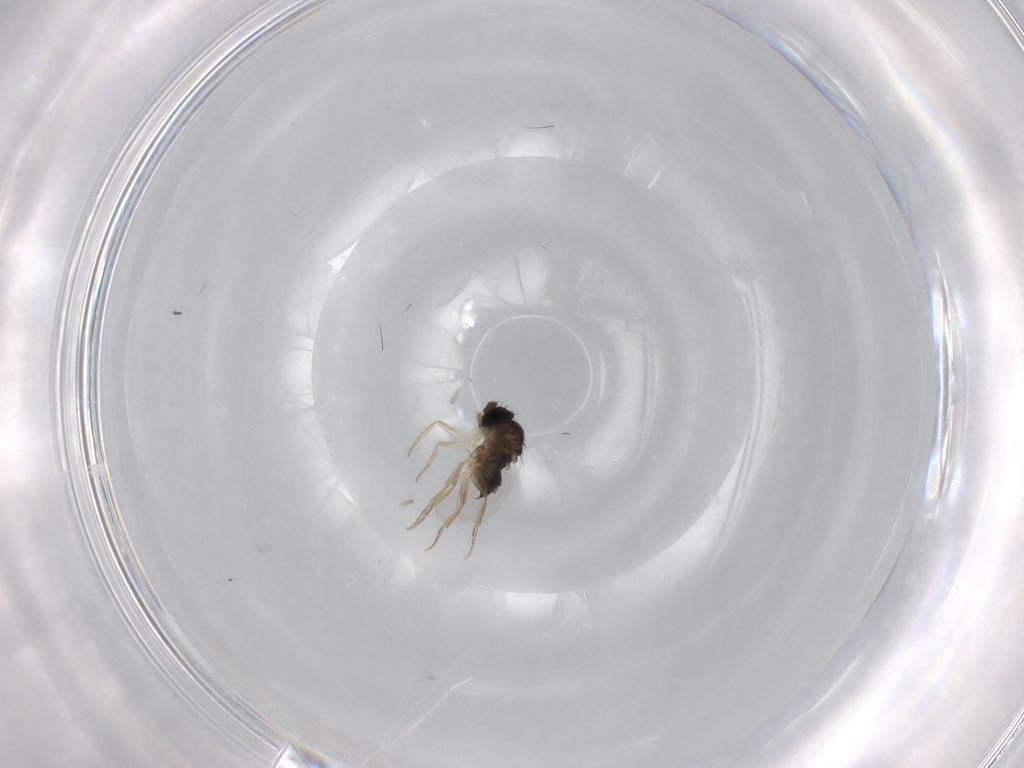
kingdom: Animalia
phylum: Arthropoda
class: Insecta
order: Diptera
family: Phoridae
